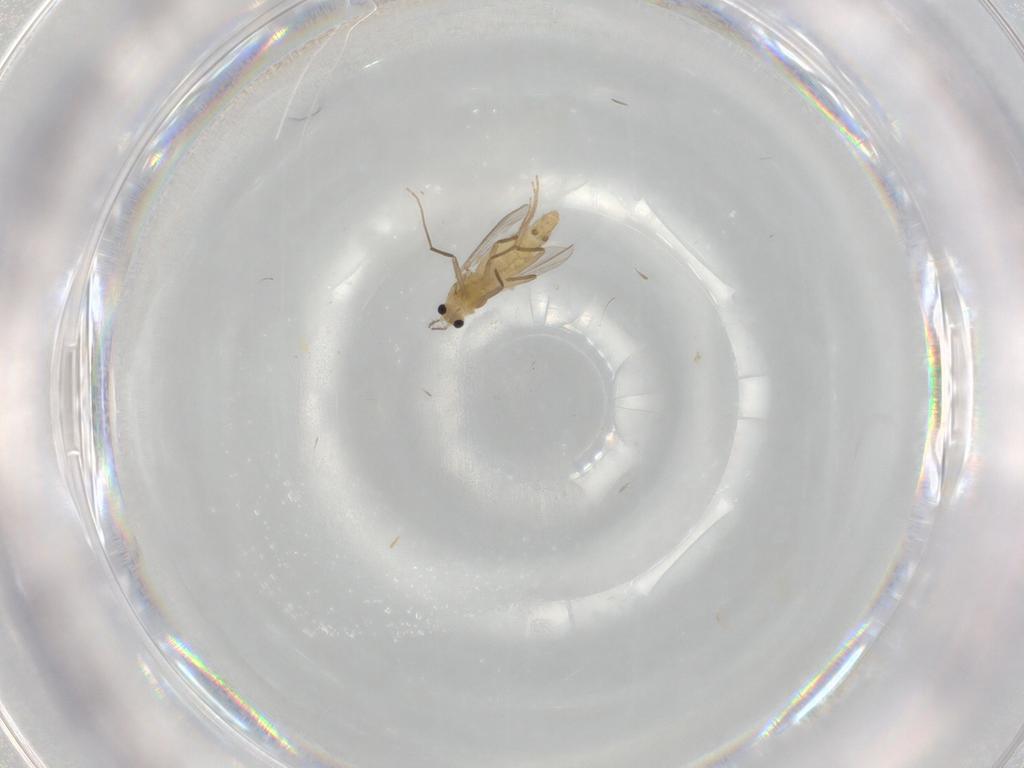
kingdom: Animalia
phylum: Arthropoda
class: Insecta
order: Diptera
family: Chironomidae
